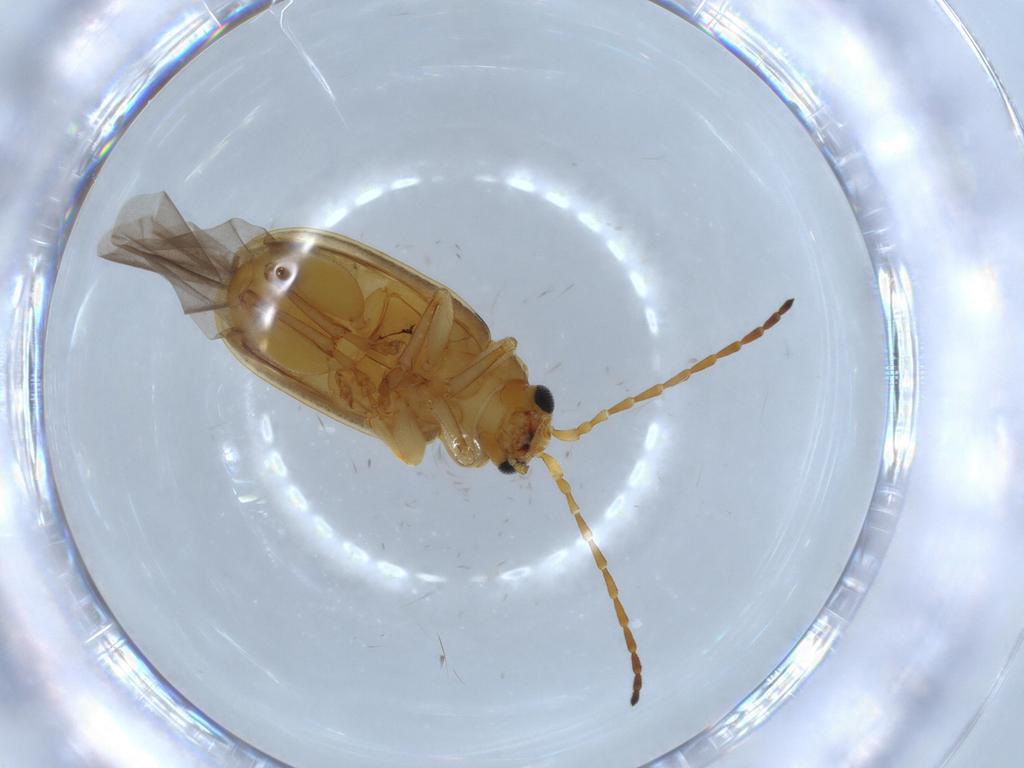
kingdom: Animalia
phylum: Arthropoda
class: Insecta
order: Coleoptera
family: Chrysomelidae
